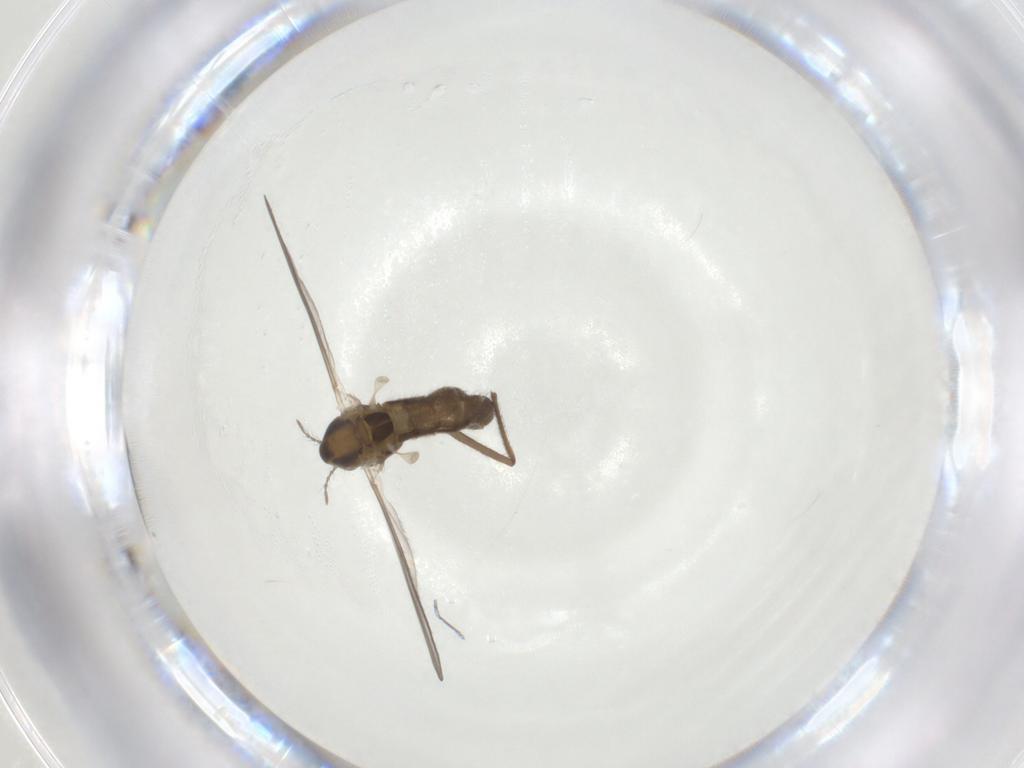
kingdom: Animalia
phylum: Arthropoda
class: Insecta
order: Diptera
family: Chironomidae
